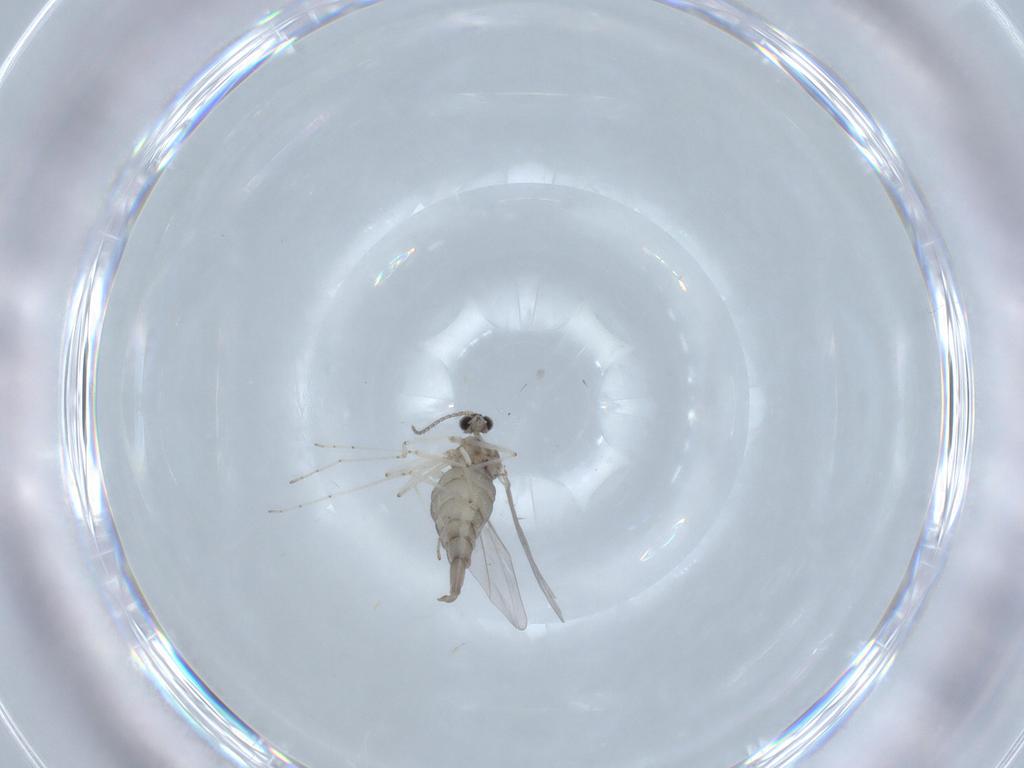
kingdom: Animalia
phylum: Arthropoda
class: Insecta
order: Diptera
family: Cecidomyiidae
